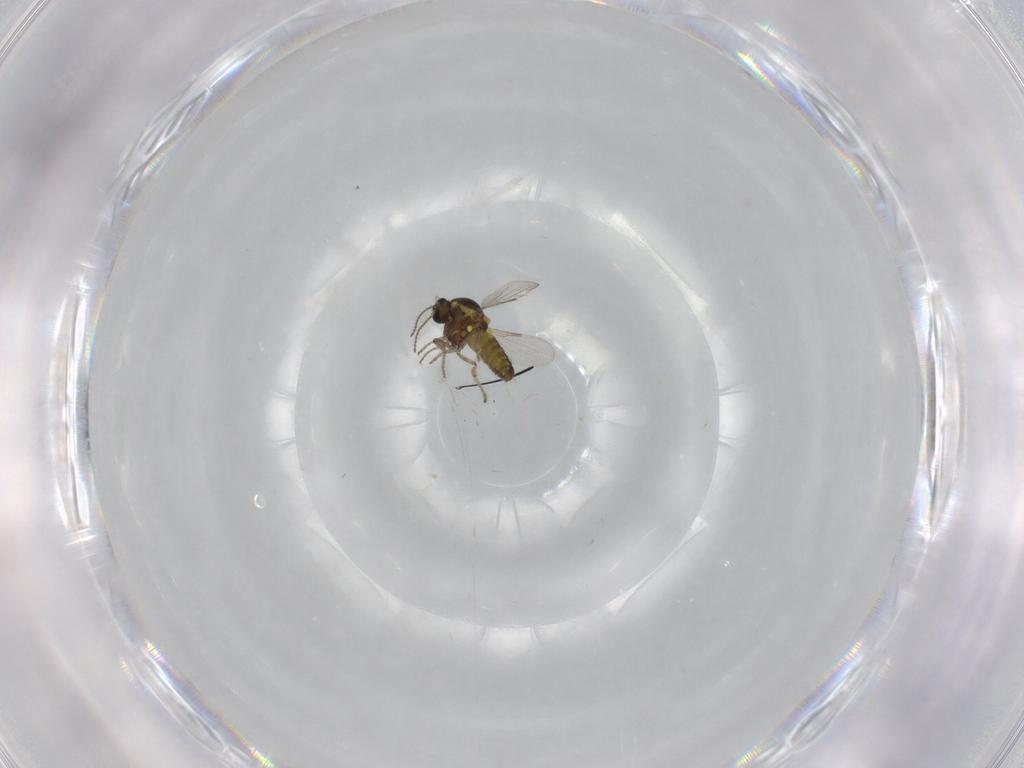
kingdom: Animalia
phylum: Arthropoda
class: Insecta
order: Diptera
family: Ceratopogonidae
